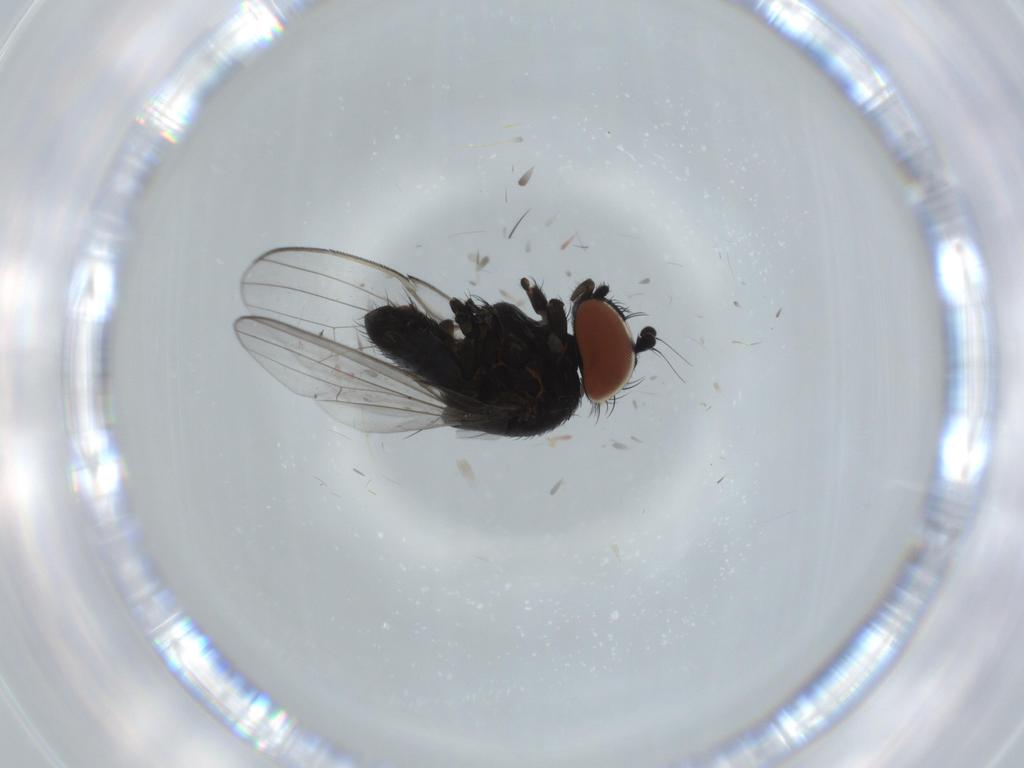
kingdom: Animalia
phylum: Arthropoda
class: Insecta
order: Diptera
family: Milichiidae
